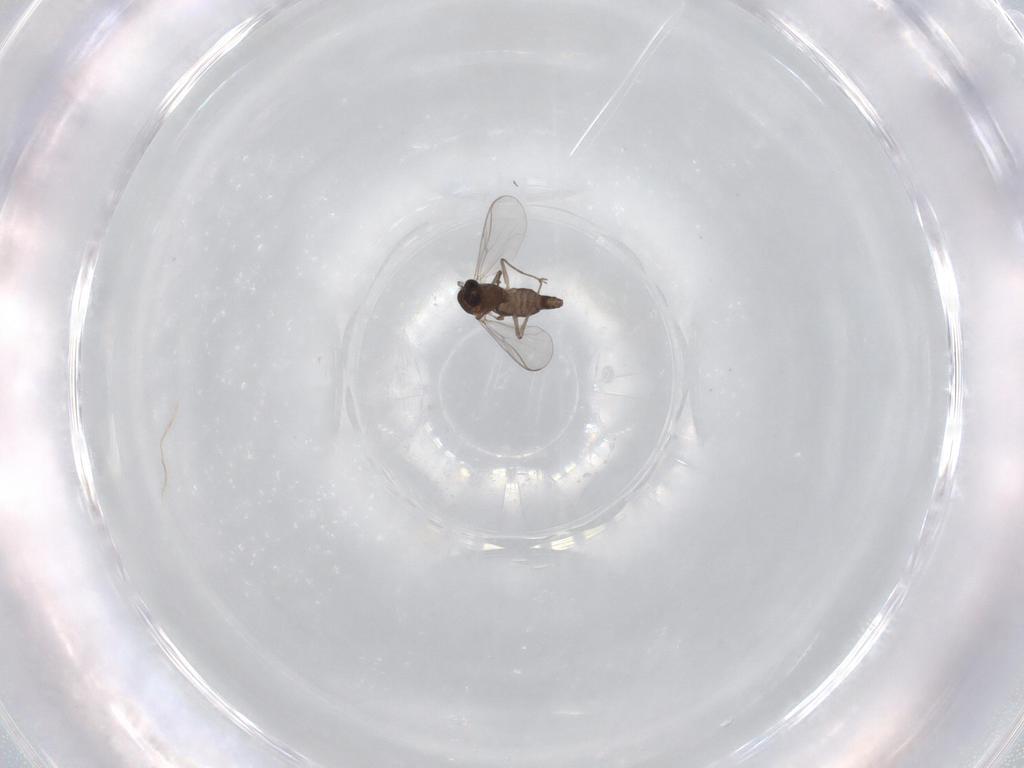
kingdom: Animalia
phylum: Arthropoda
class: Insecta
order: Diptera
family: Chironomidae
